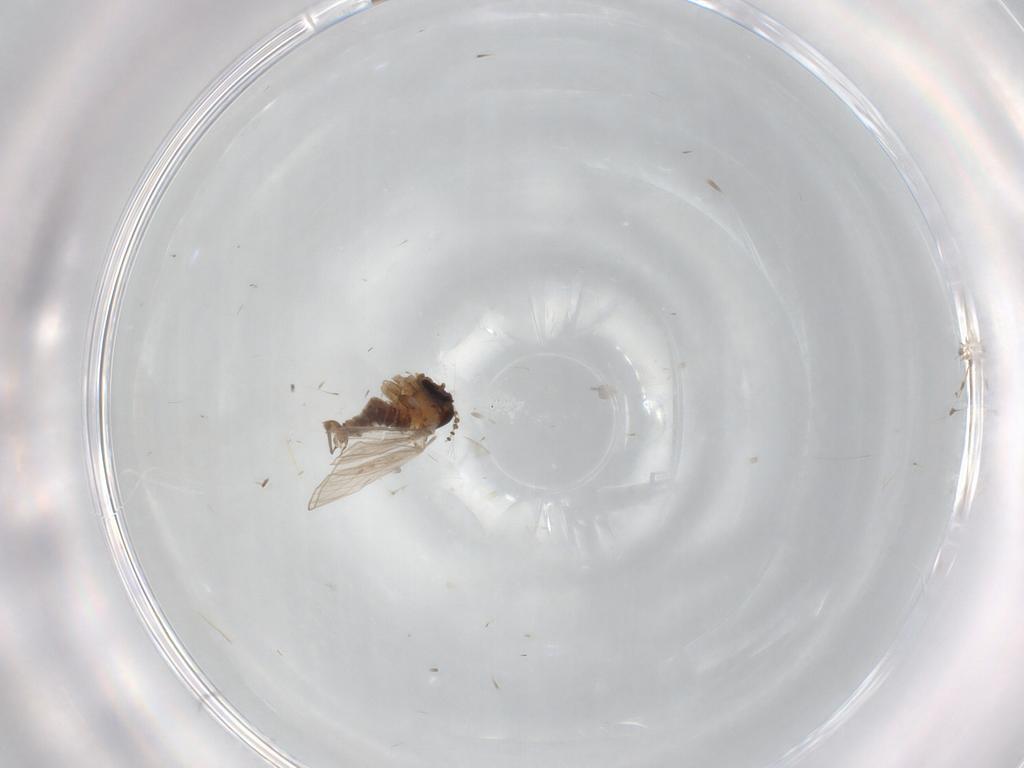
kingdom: Animalia
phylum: Arthropoda
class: Insecta
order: Diptera
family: Psychodidae
